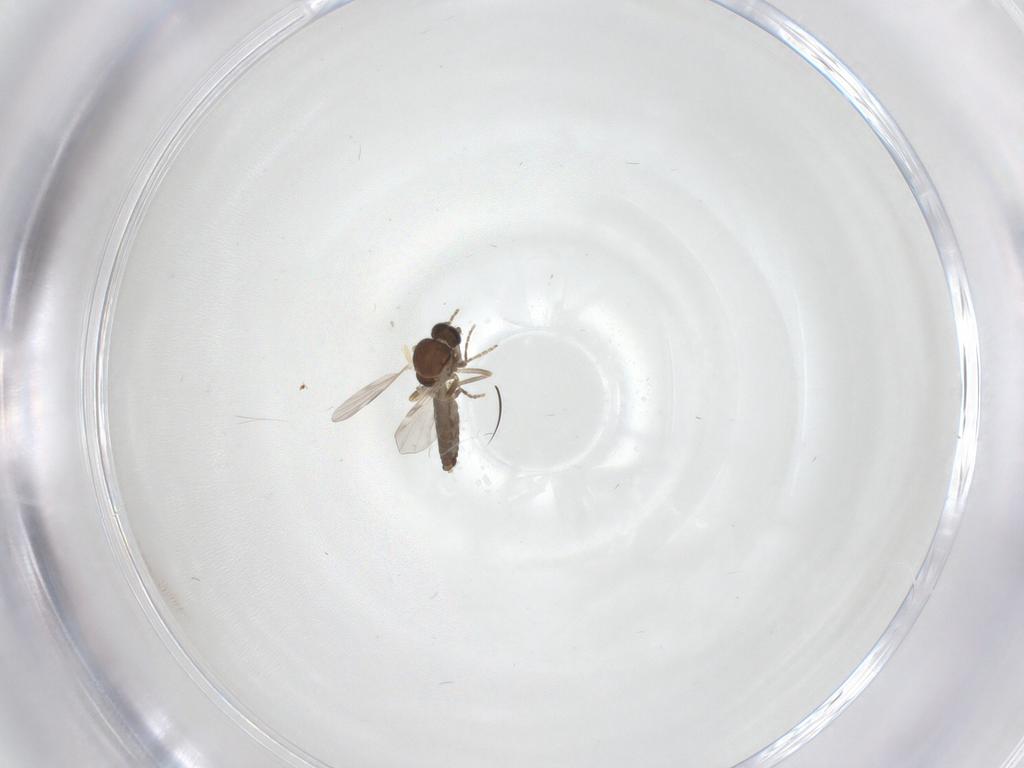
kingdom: Animalia
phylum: Arthropoda
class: Insecta
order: Diptera
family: Ceratopogonidae
